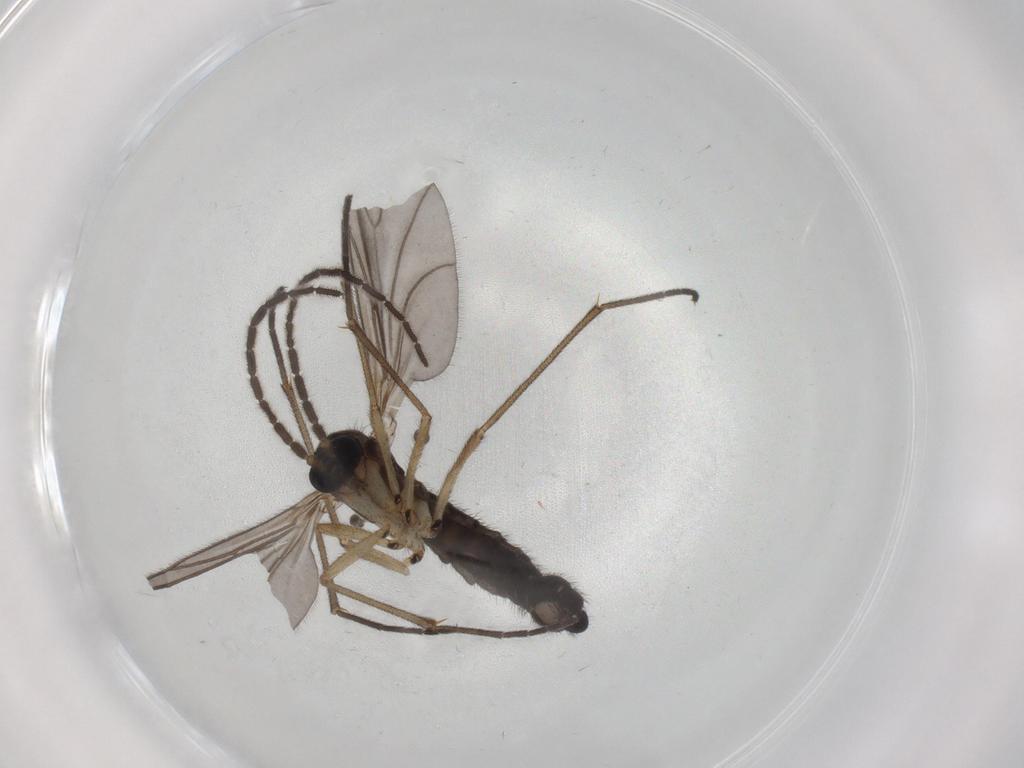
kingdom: Animalia
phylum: Arthropoda
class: Insecta
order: Diptera
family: Sciaridae
